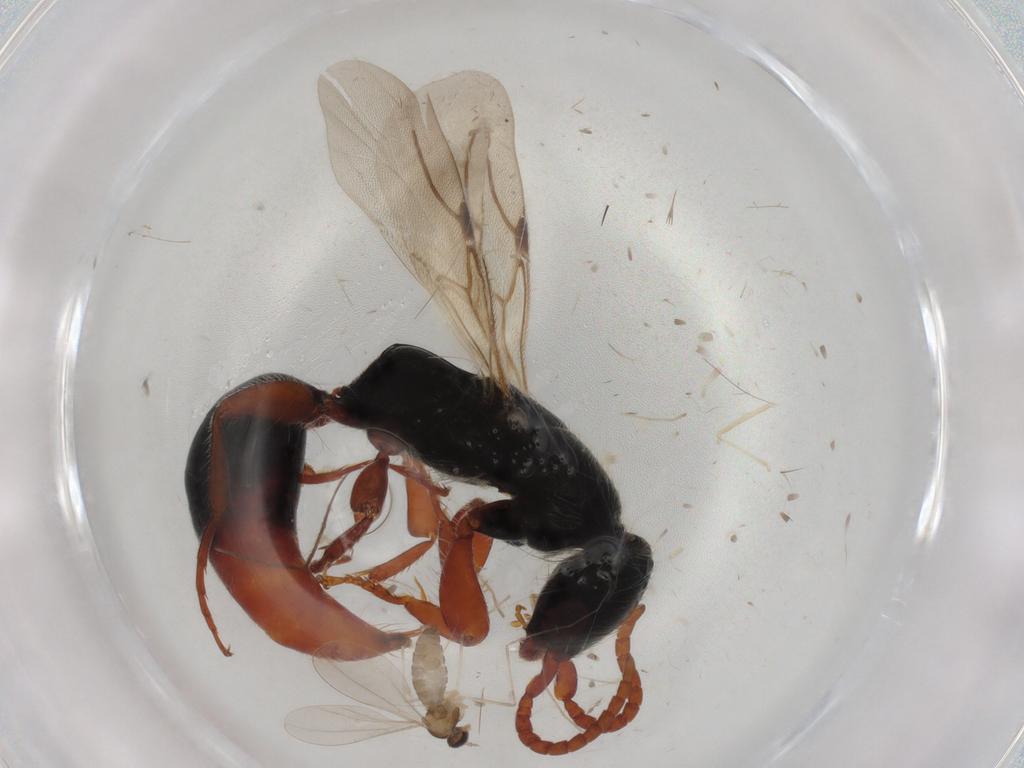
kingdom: Animalia
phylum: Arthropoda
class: Insecta
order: Hymenoptera
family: Bethylidae
